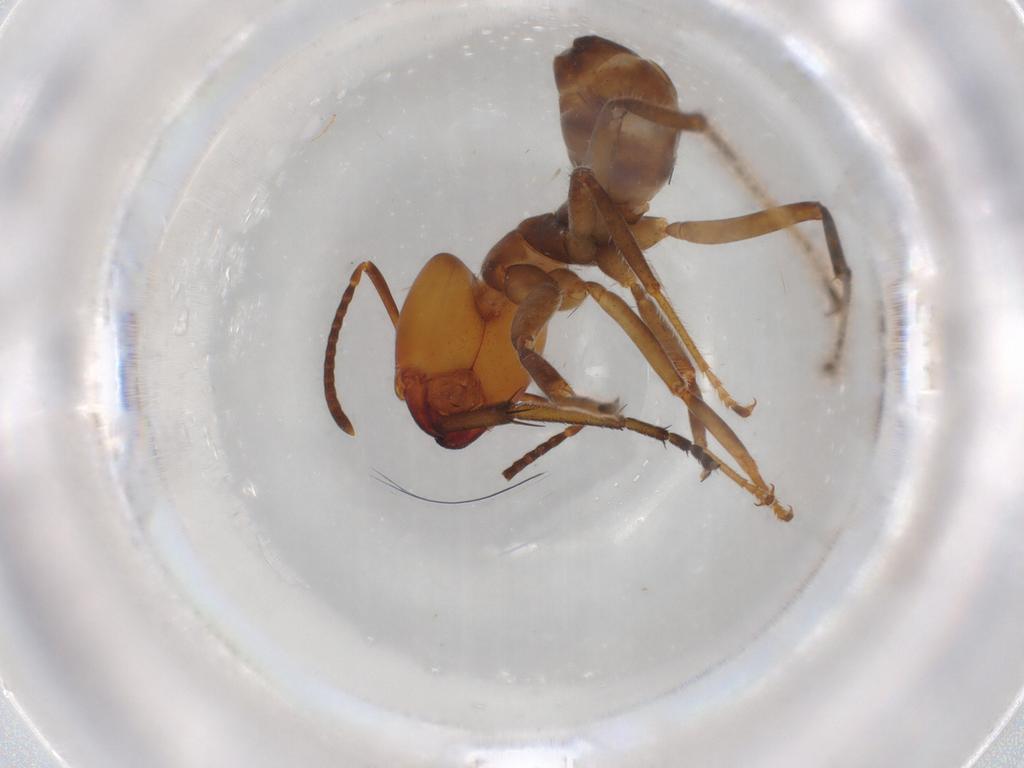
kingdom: Animalia
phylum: Arthropoda
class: Insecta
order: Hymenoptera
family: Formicidae
